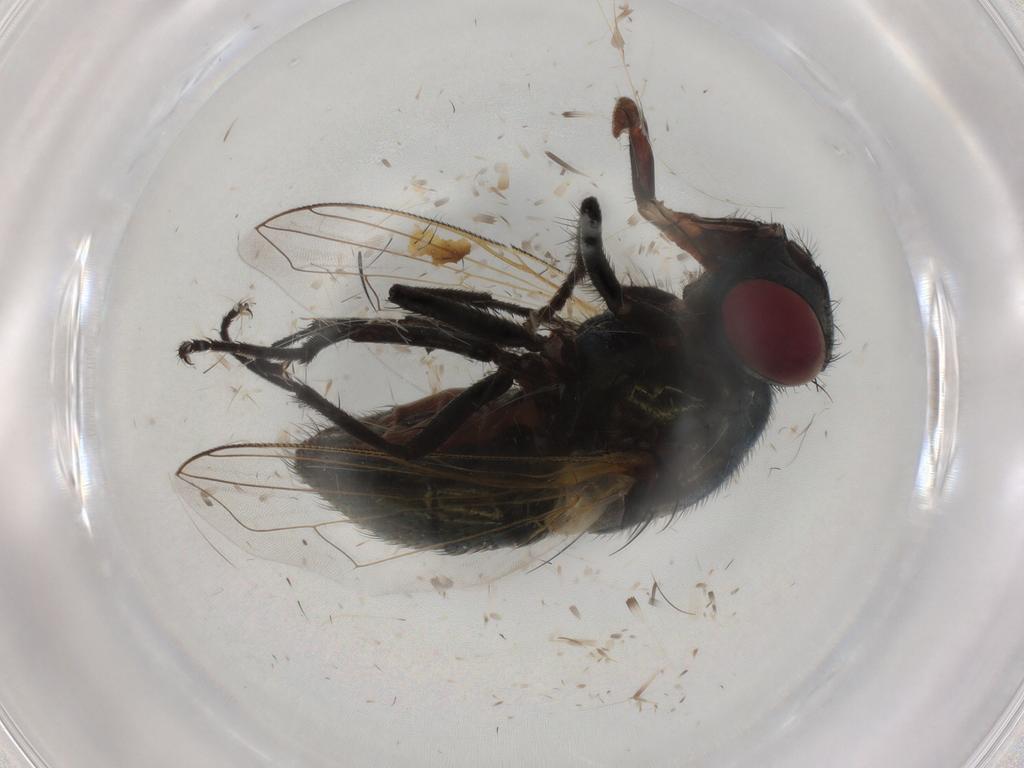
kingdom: Animalia
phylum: Arthropoda
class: Insecta
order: Diptera
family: Muscidae
